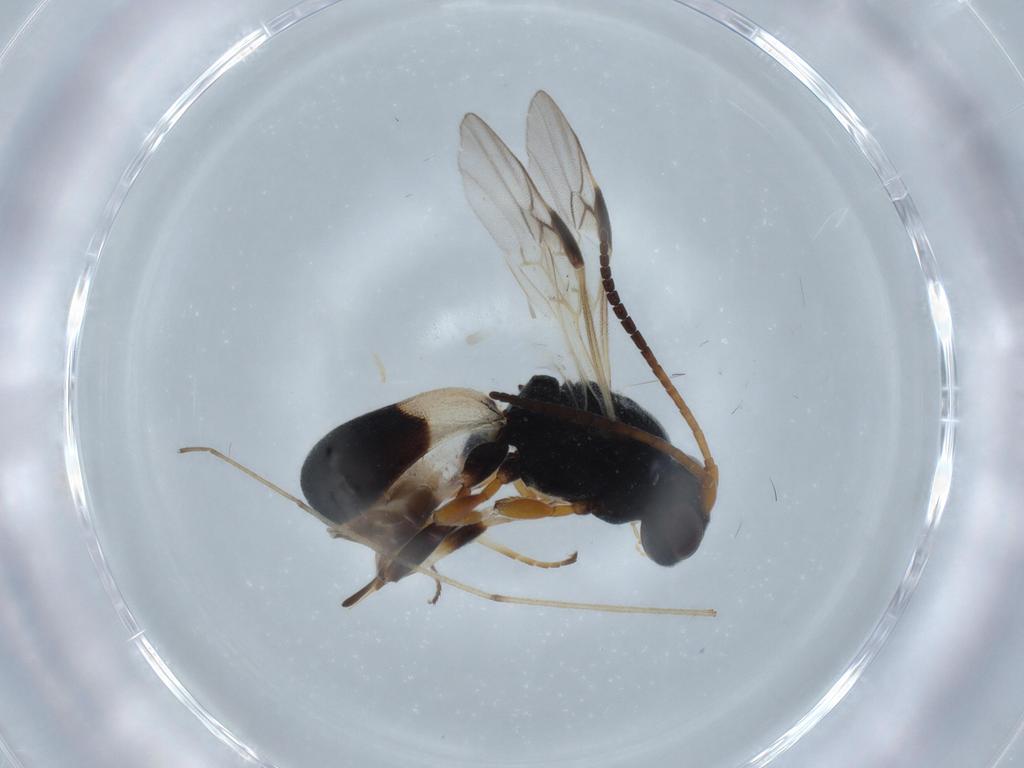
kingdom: Animalia
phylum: Arthropoda
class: Insecta
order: Hymenoptera
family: Braconidae
